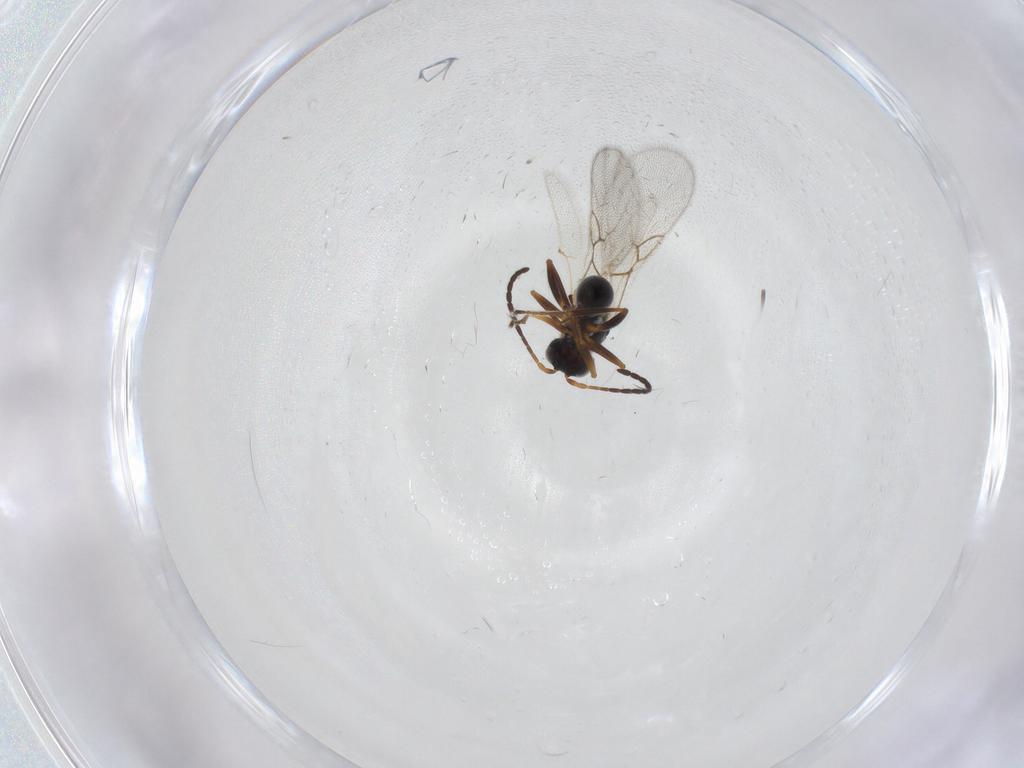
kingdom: Animalia
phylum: Arthropoda
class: Insecta
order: Hymenoptera
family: Figitidae
